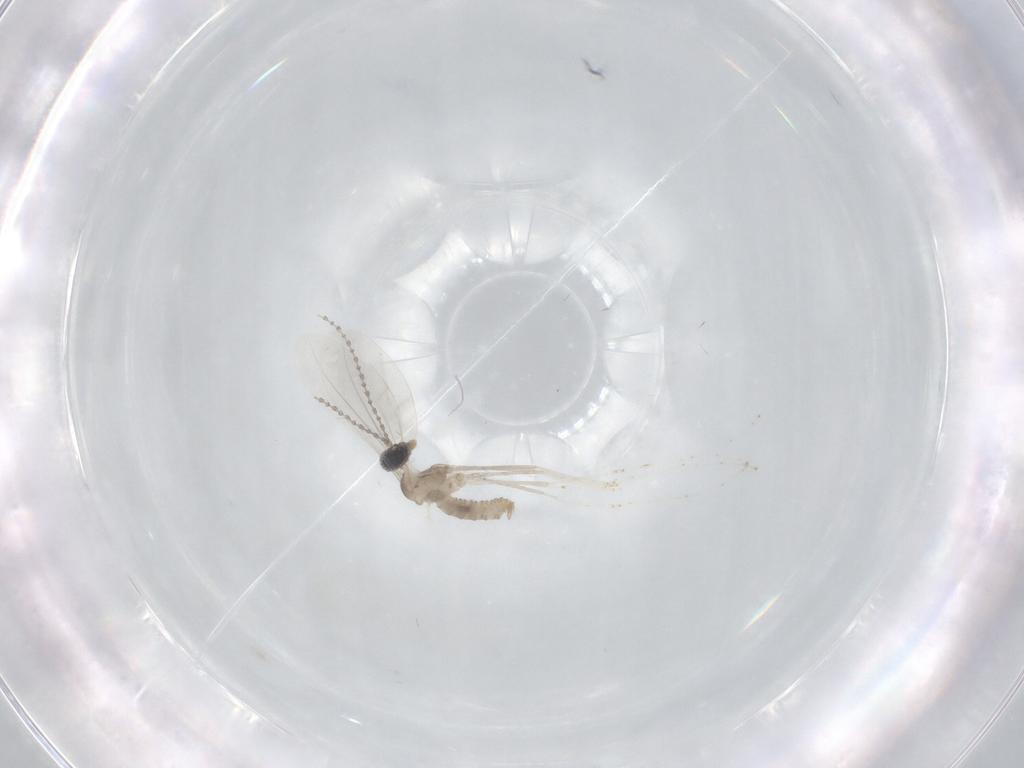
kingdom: Animalia
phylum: Arthropoda
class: Insecta
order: Diptera
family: Cecidomyiidae
